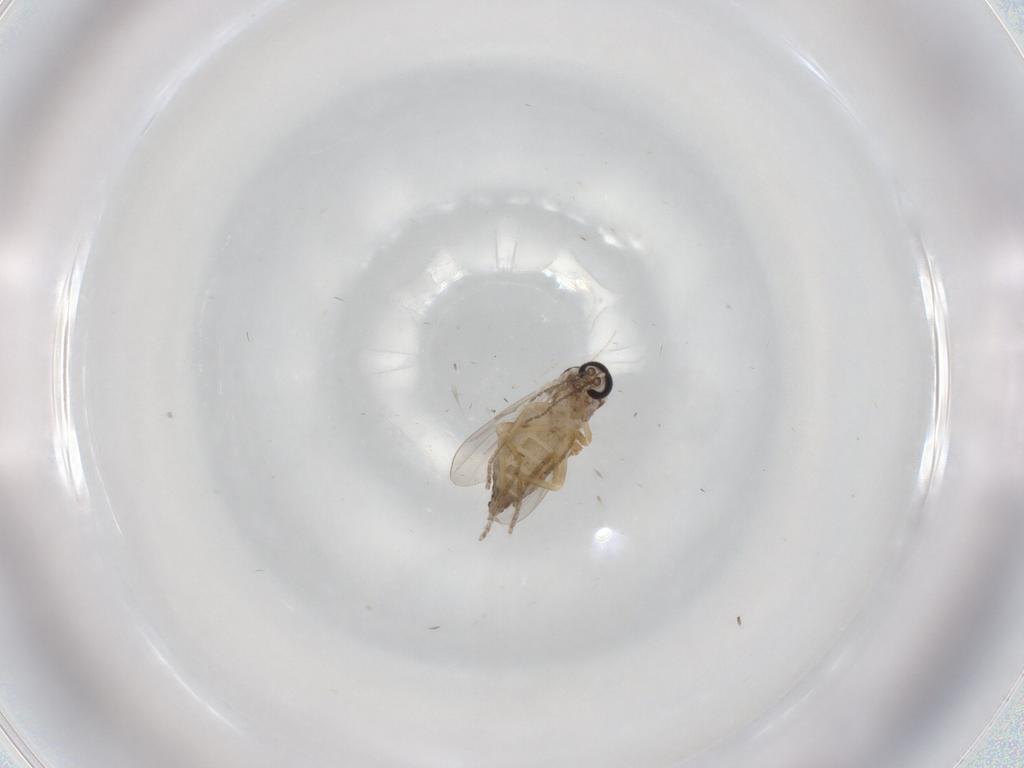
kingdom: Animalia
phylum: Arthropoda
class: Insecta
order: Diptera
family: Ceratopogonidae
